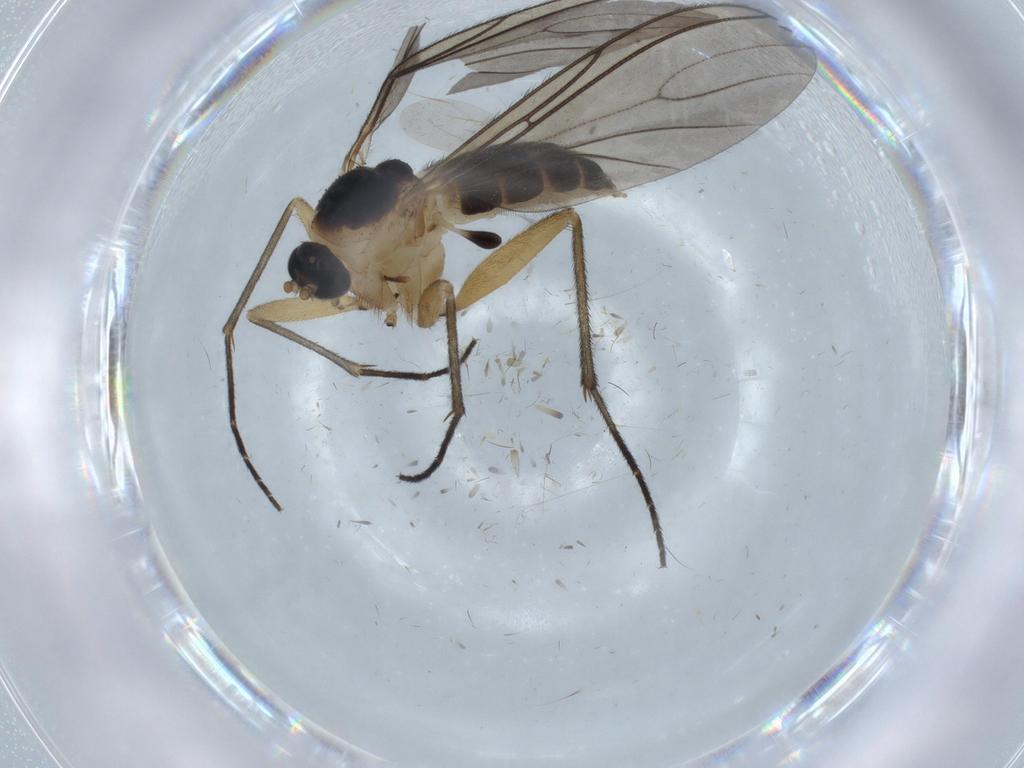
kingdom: Animalia
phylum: Arthropoda
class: Insecta
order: Diptera
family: Sciaridae
